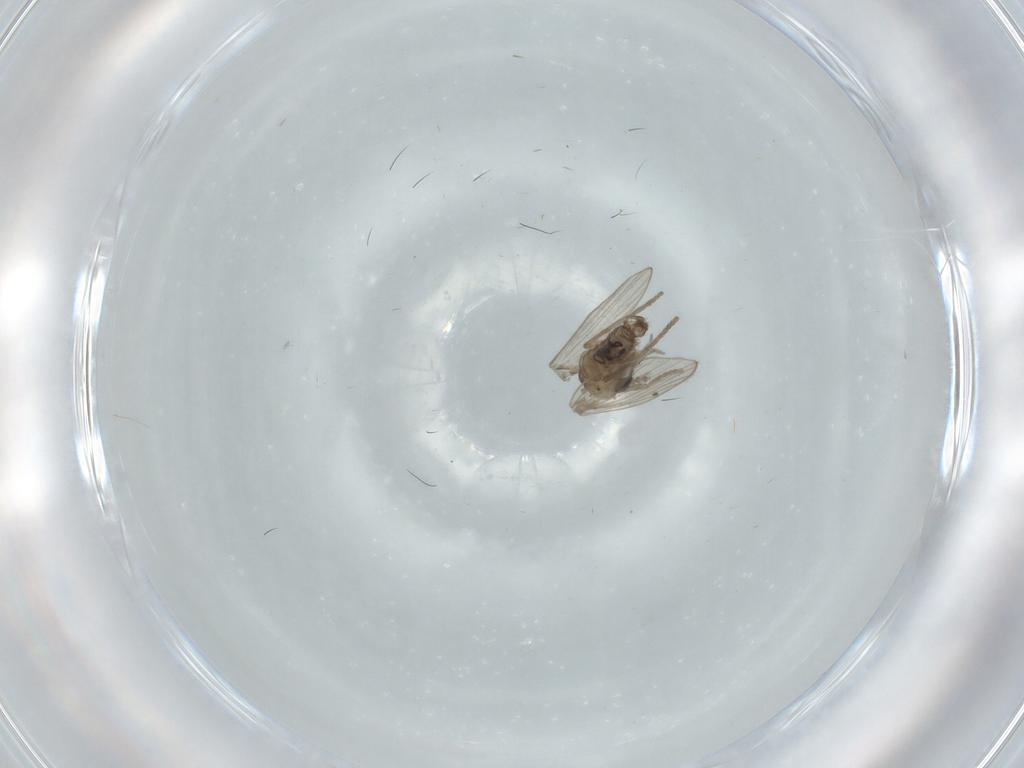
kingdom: Animalia
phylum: Arthropoda
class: Insecta
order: Diptera
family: Psychodidae
